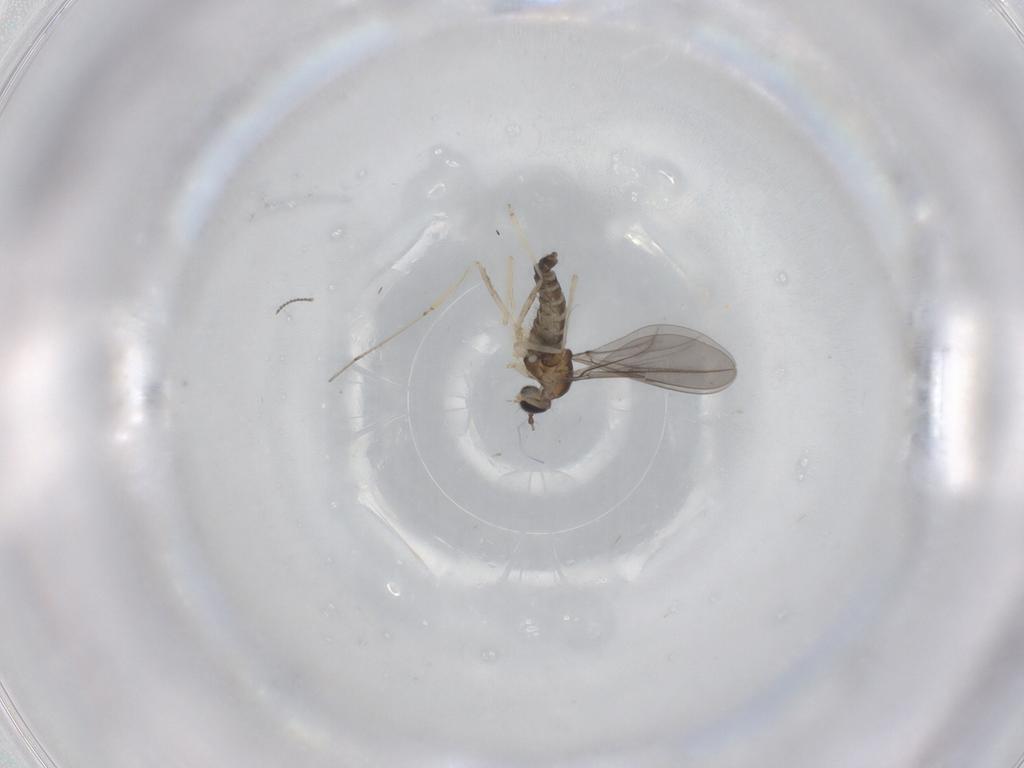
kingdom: Animalia
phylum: Arthropoda
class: Insecta
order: Diptera
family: Cecidomyiidae
